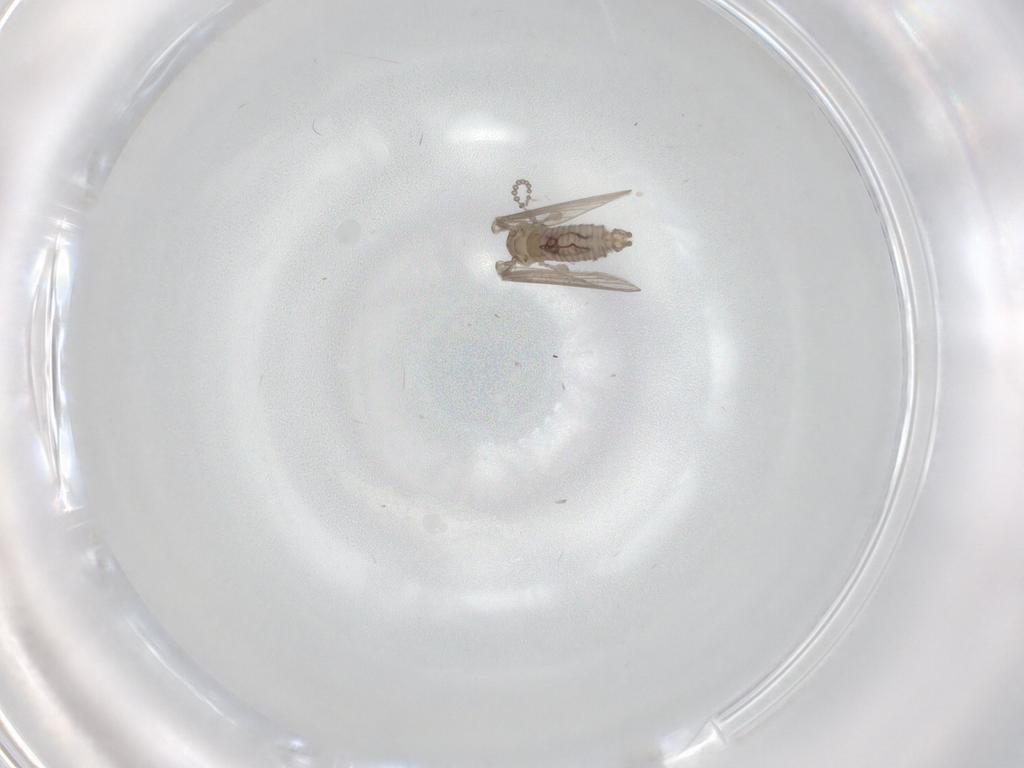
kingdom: Animalia
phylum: Arthropoda
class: Insecta
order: Diptera
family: Psychodidae
